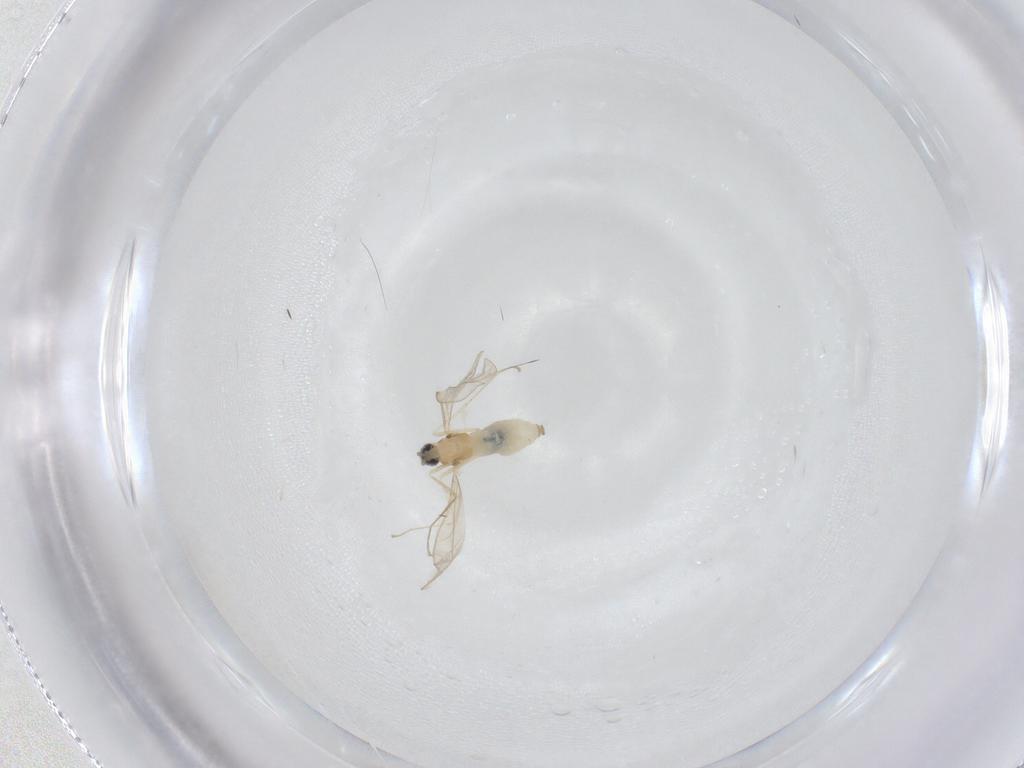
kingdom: Animalia
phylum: Arthropoda
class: Insecta
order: Diptera
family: Cecidomyiidae
